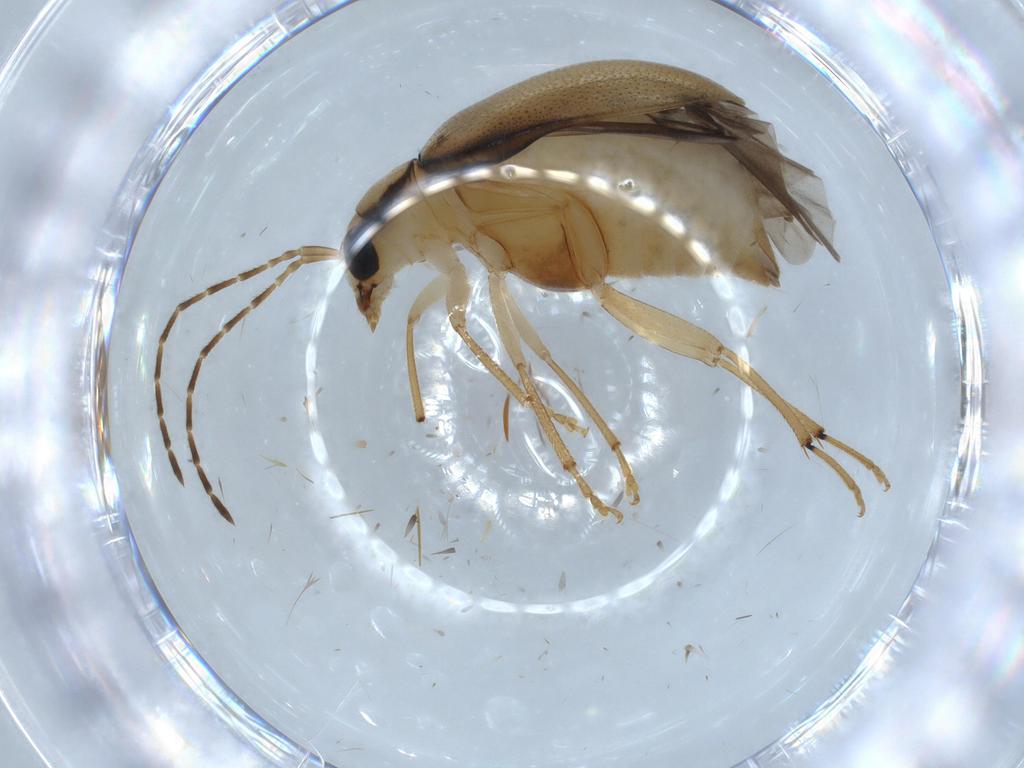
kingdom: Animalia
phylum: Arthropoda
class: Insecta
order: Coleoptera
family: Chrysomelidae
